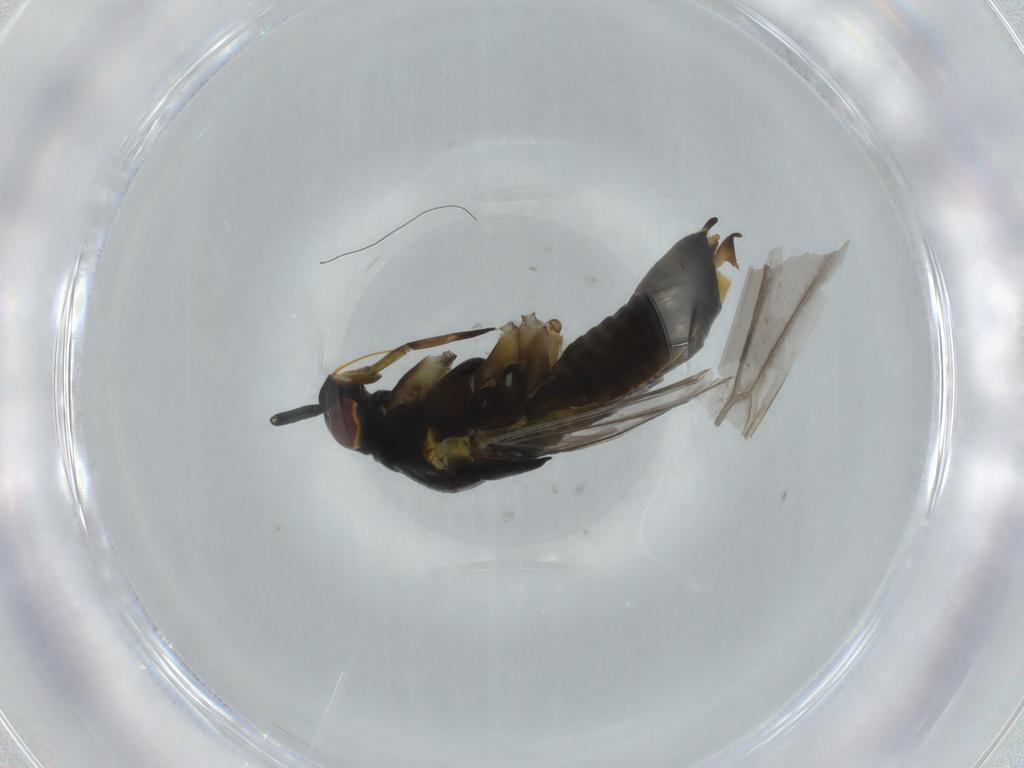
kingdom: Animalia
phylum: Arthropoda
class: Insecta
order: Hemiptera
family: Miridae
